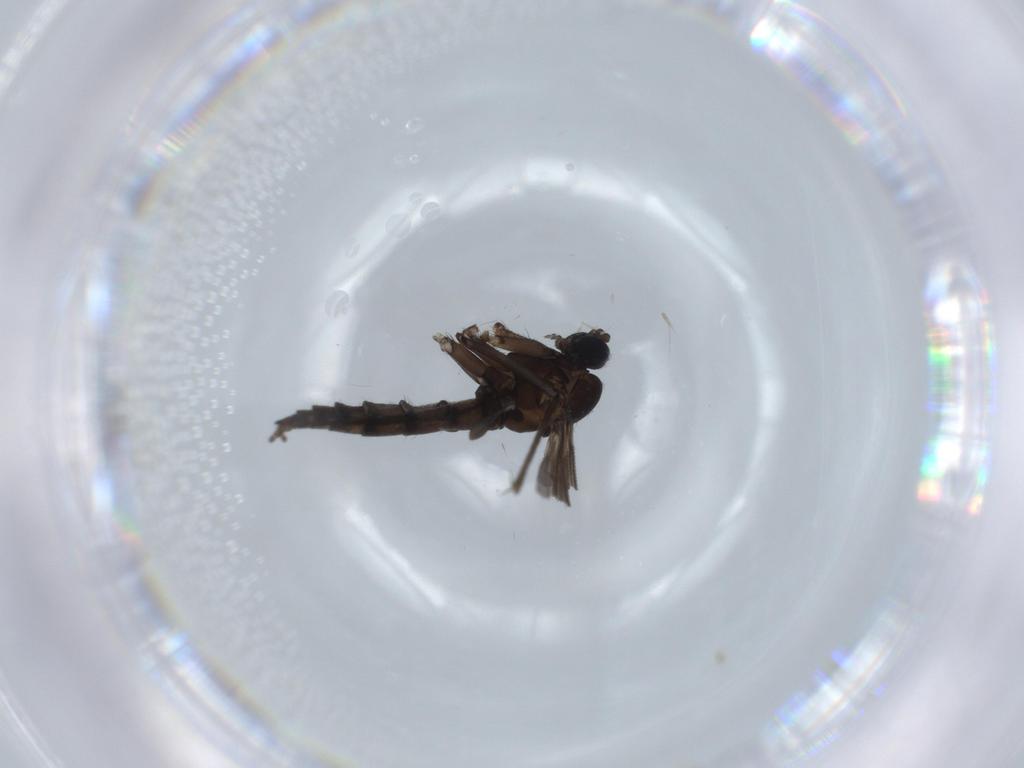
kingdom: Animalia
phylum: Arthropoda
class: Insecta
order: Diptera
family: Sciaridae
